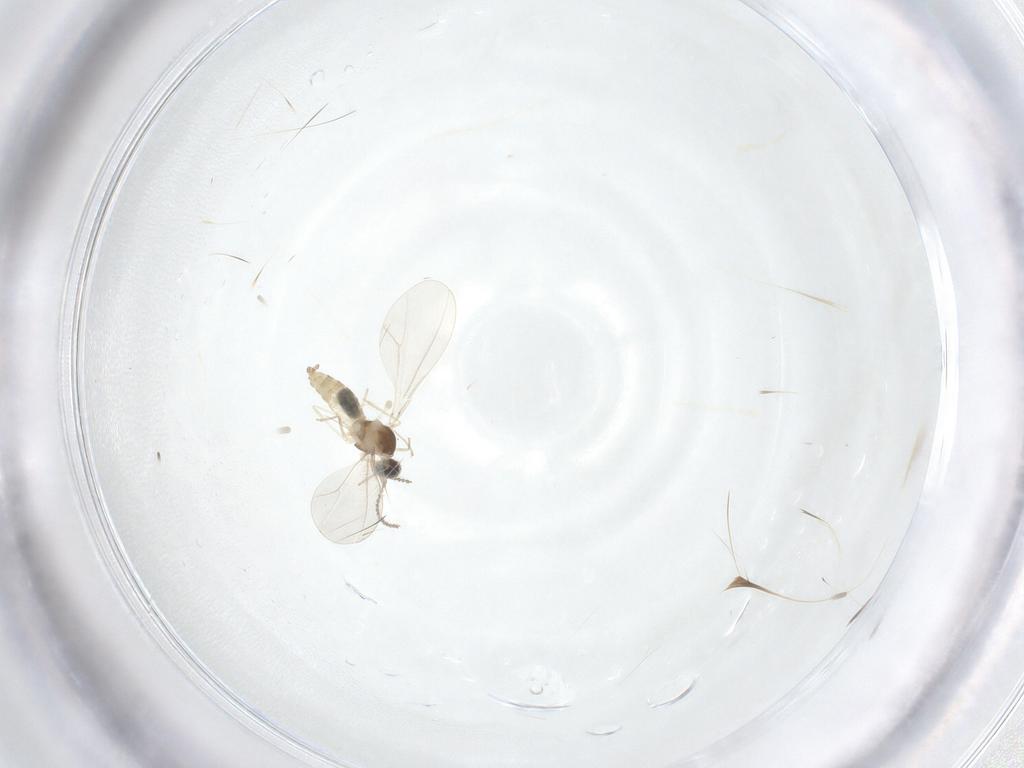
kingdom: Animalia
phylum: Arthropoda
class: Insecta
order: Diptera
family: Cecidomyiidae
